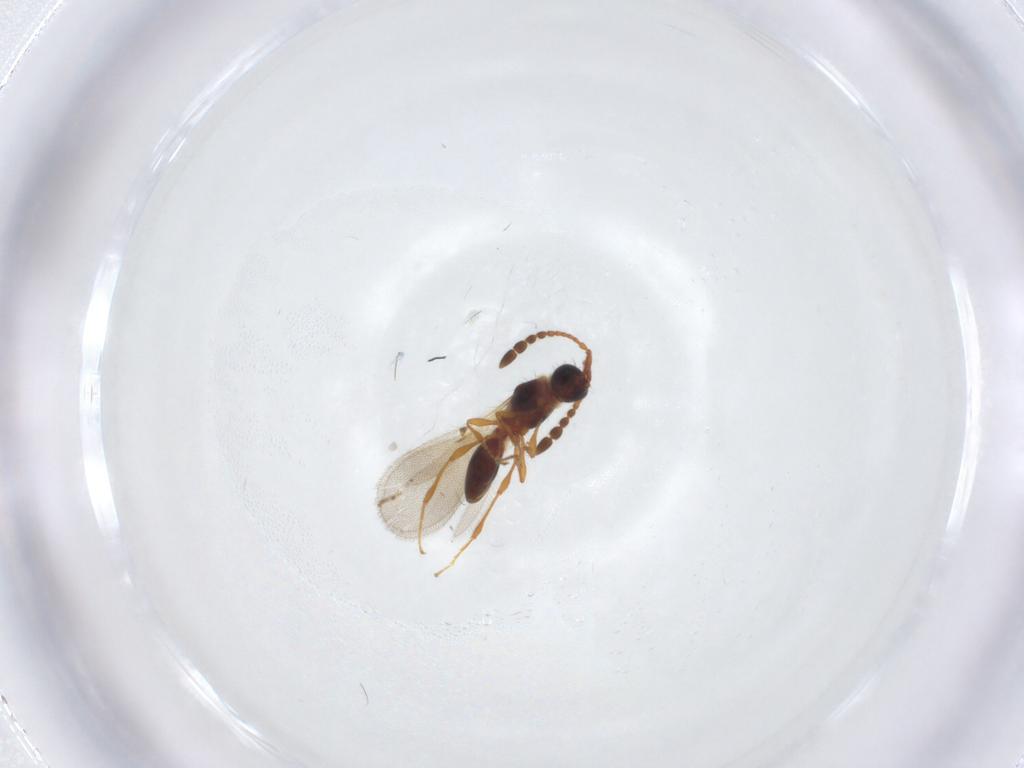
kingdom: Animalia
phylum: Arthropoda
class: Insecta
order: Hymenoptera
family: Diapriidae
